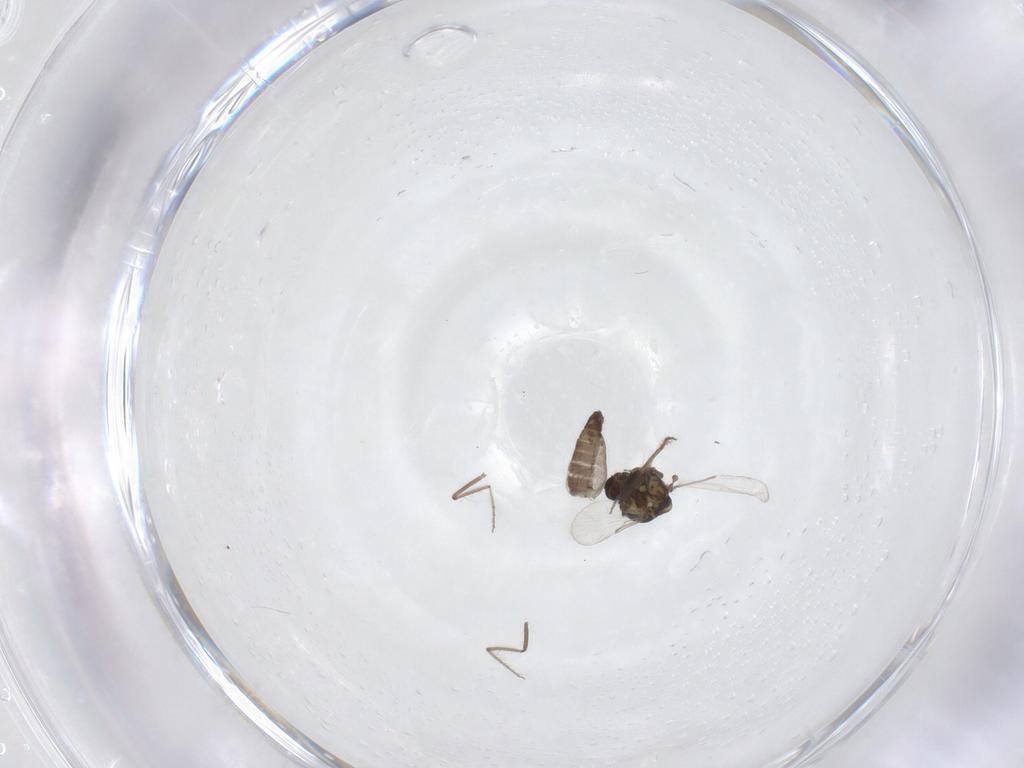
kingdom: Animalia
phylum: Arthropoda
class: Insecta
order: Diptera
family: Ceratopogonidae
